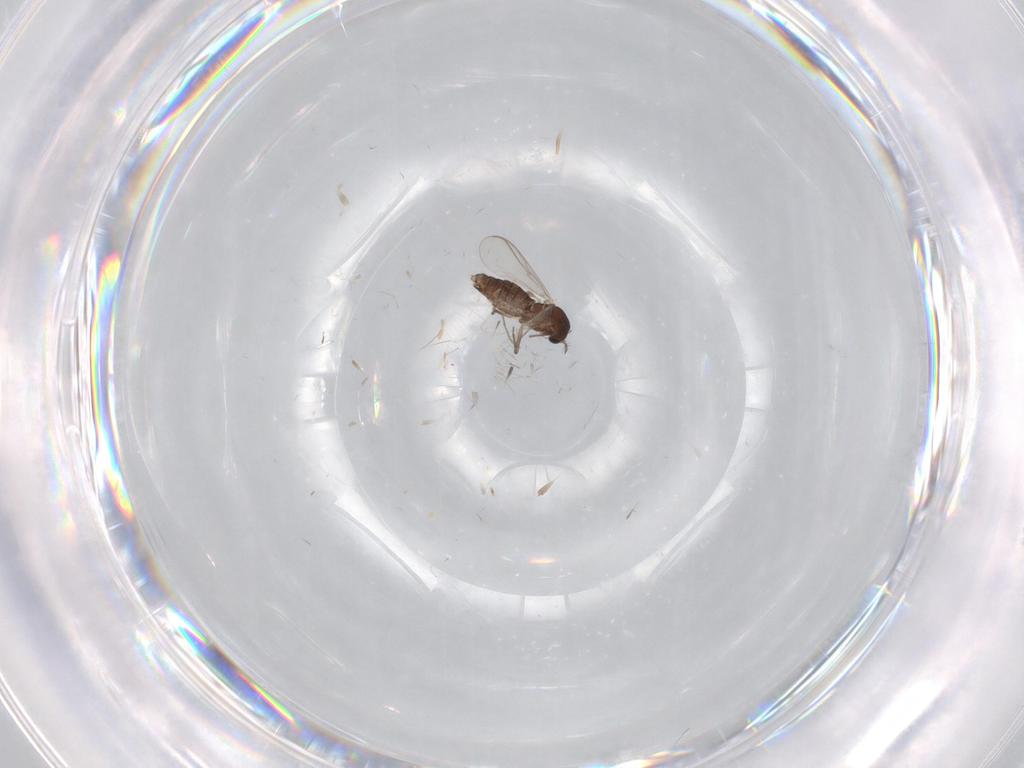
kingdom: Animalia
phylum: Arthropoda
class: Insecta
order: Diptera
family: Chironomidae
